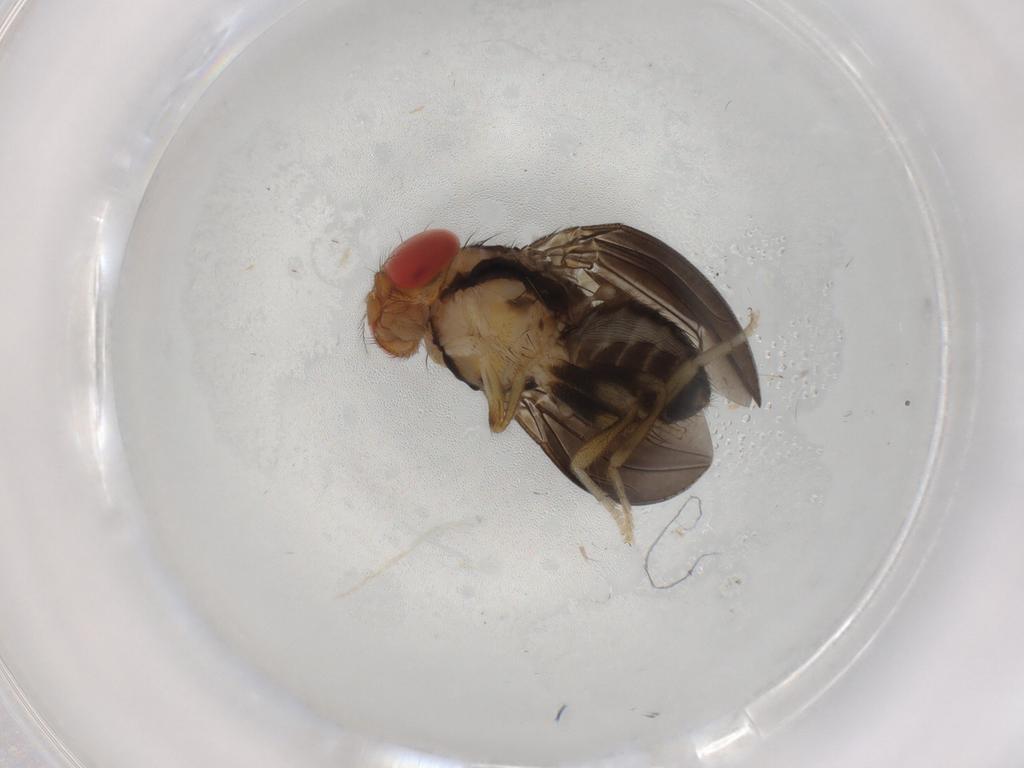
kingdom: Animalia
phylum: Arthropoda
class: Insecta
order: Diptera
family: Cecidomyiidae
